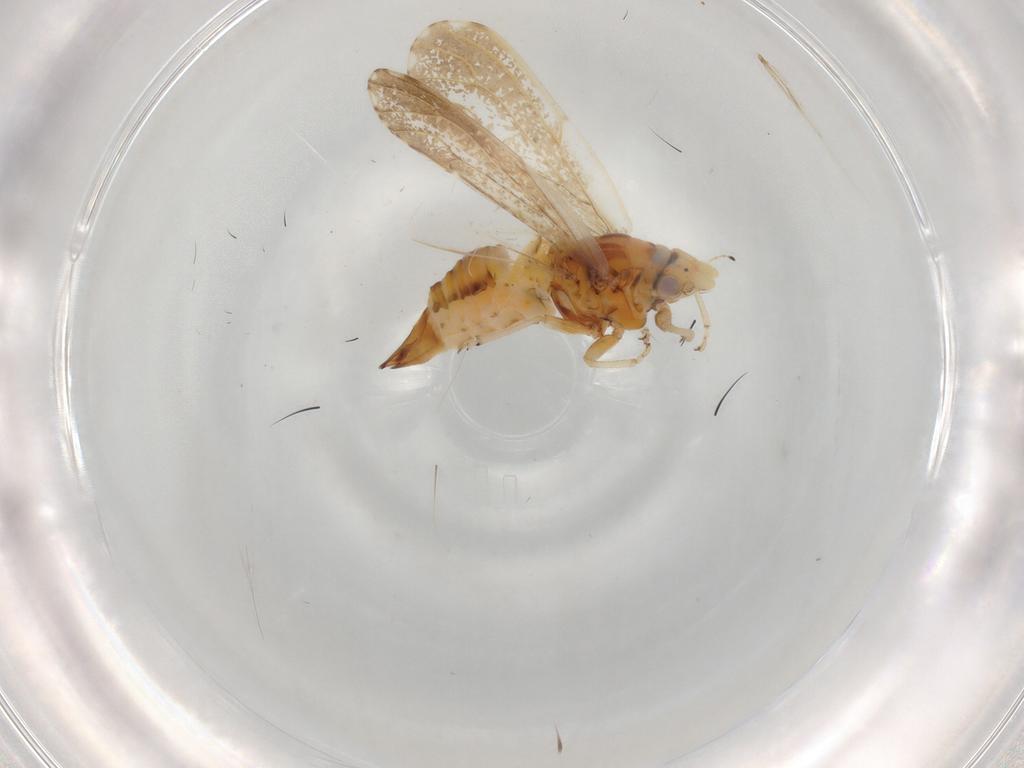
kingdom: Animalia
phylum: Arthropoda
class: Insecta
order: Hemiptera
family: Liviidae
